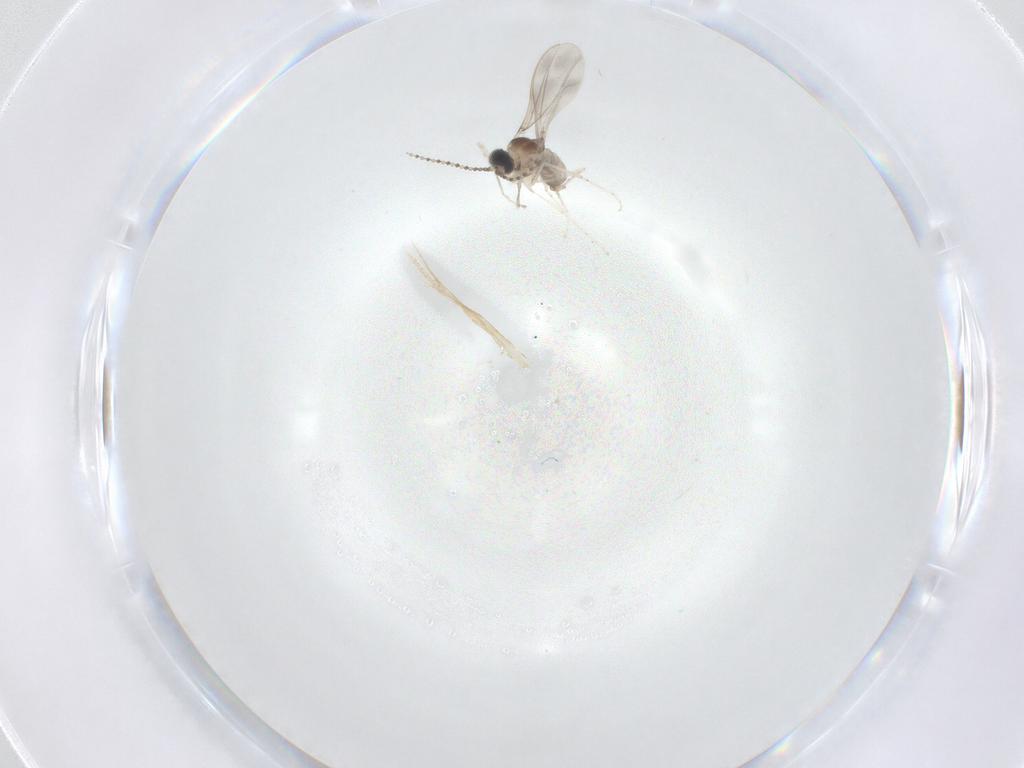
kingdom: Animalia
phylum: Arthropoda
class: Insecta
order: Diptera
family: Cecidomyiidae
